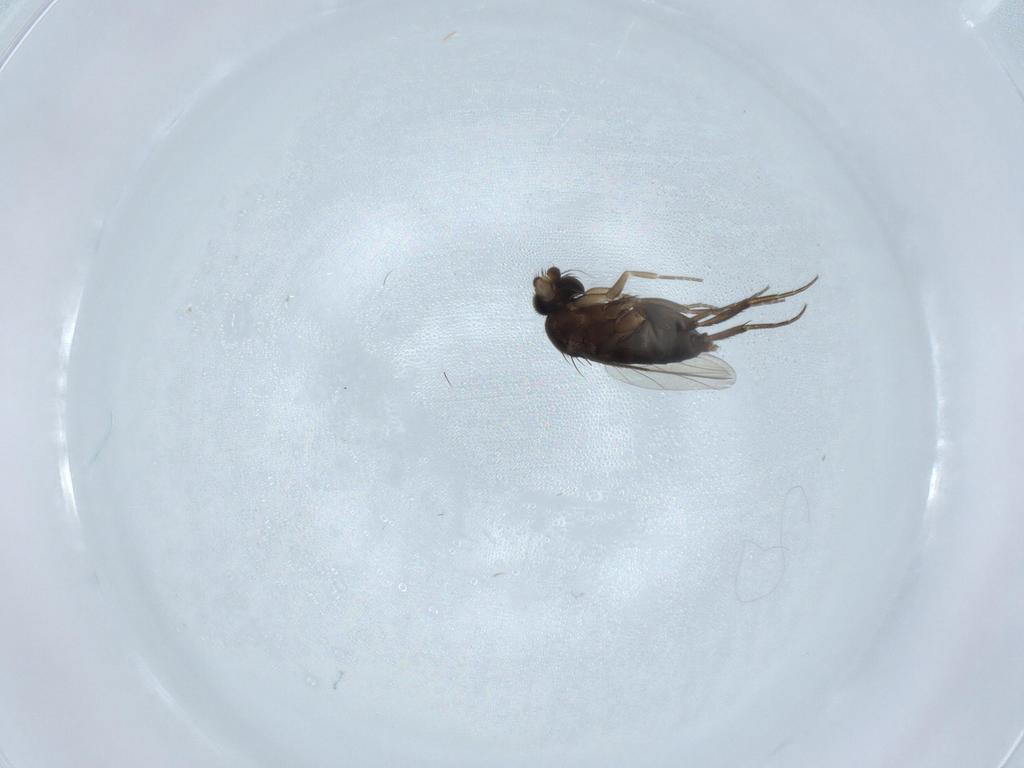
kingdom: Animalia
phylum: Arthropoda
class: Insecta
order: Diptera
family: Phoridae
